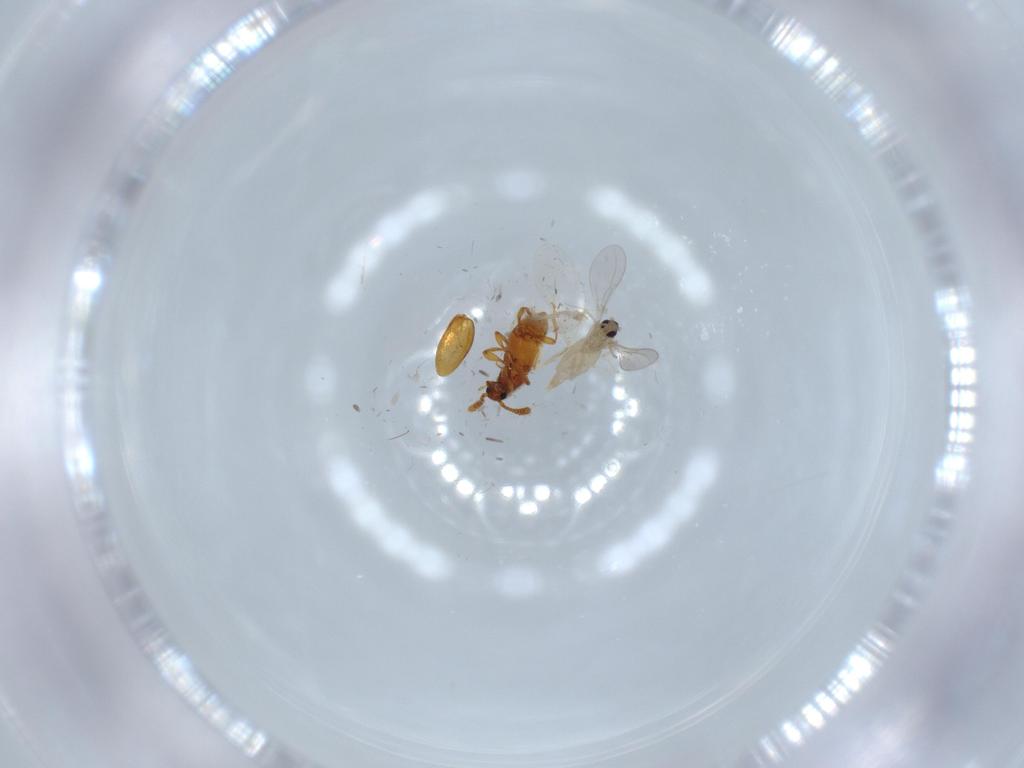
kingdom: Animalia
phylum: Arthropoda
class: Insecta
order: Diptera
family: Cecidomyiidae
